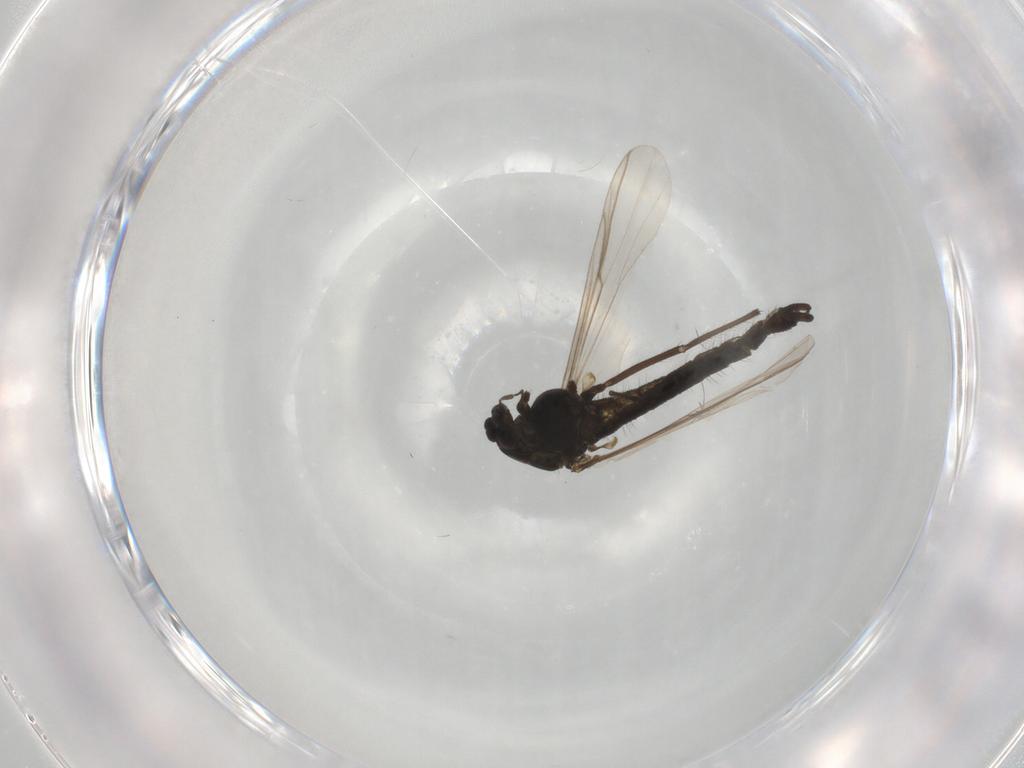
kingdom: Animalia
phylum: Arthropoda
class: Insecta
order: Diptera
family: Chironomidae
